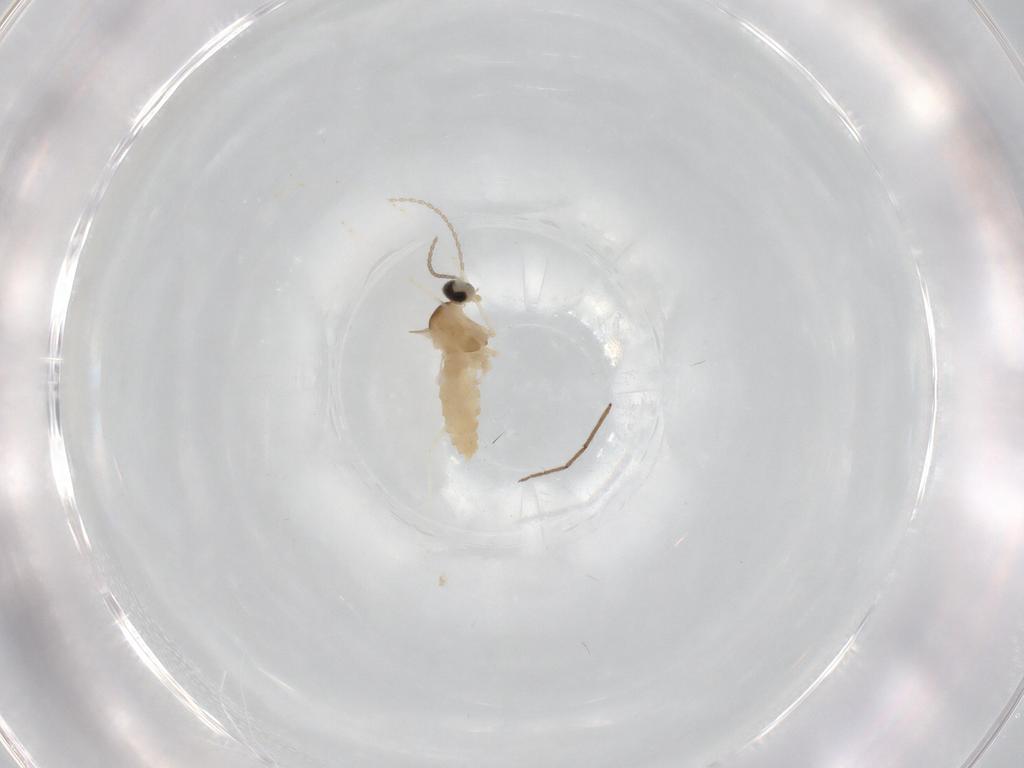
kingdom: Animalia
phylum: Arthropoda
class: Insecta
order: Diptera
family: Cecidomyiidae
